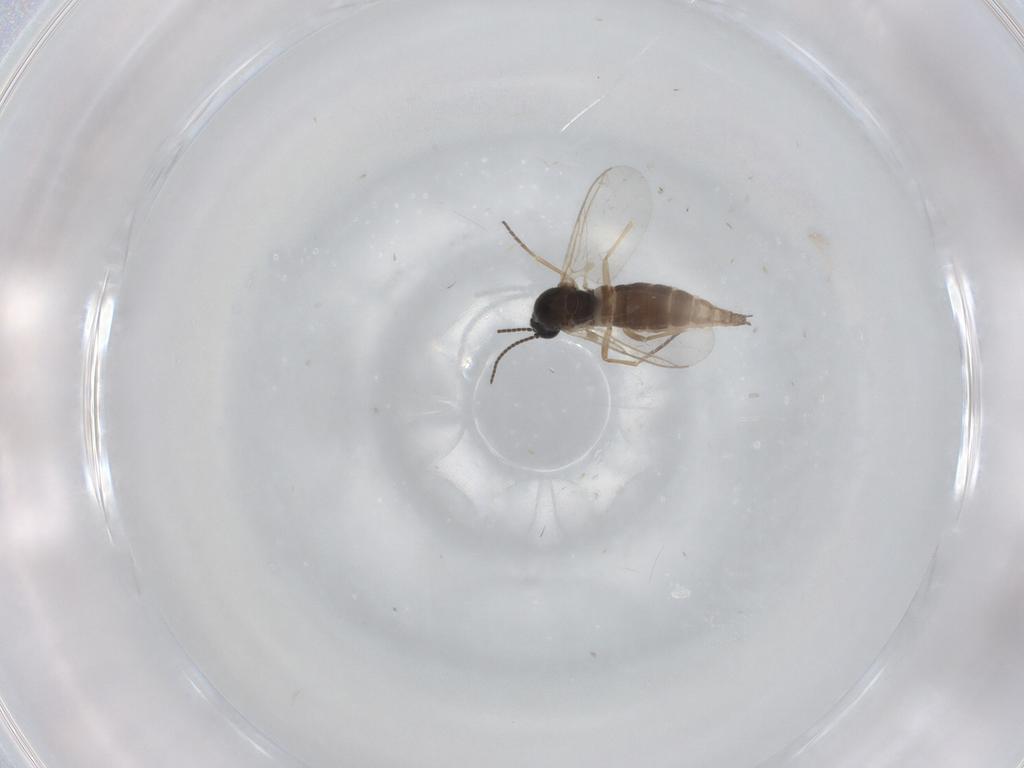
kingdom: Animalia
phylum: Arthropoda
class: Insecta
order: Diptera
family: Sciaridae
